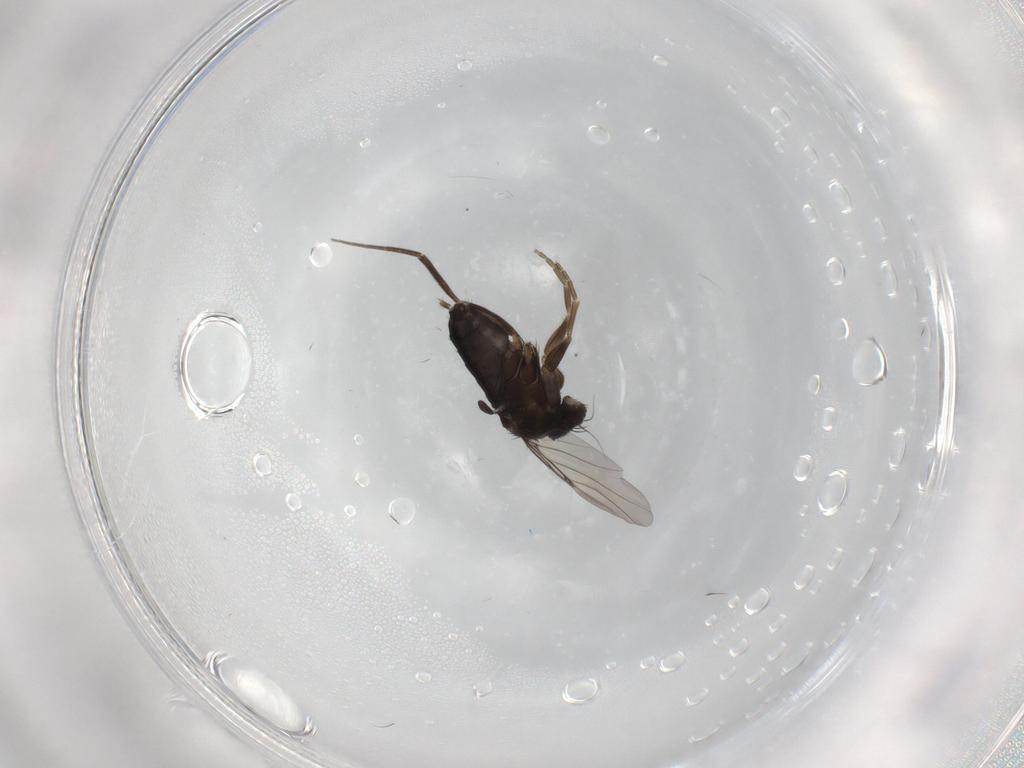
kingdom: Animalia
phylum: Arthropoda
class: Insecta
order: Diptera
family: Phoridae
